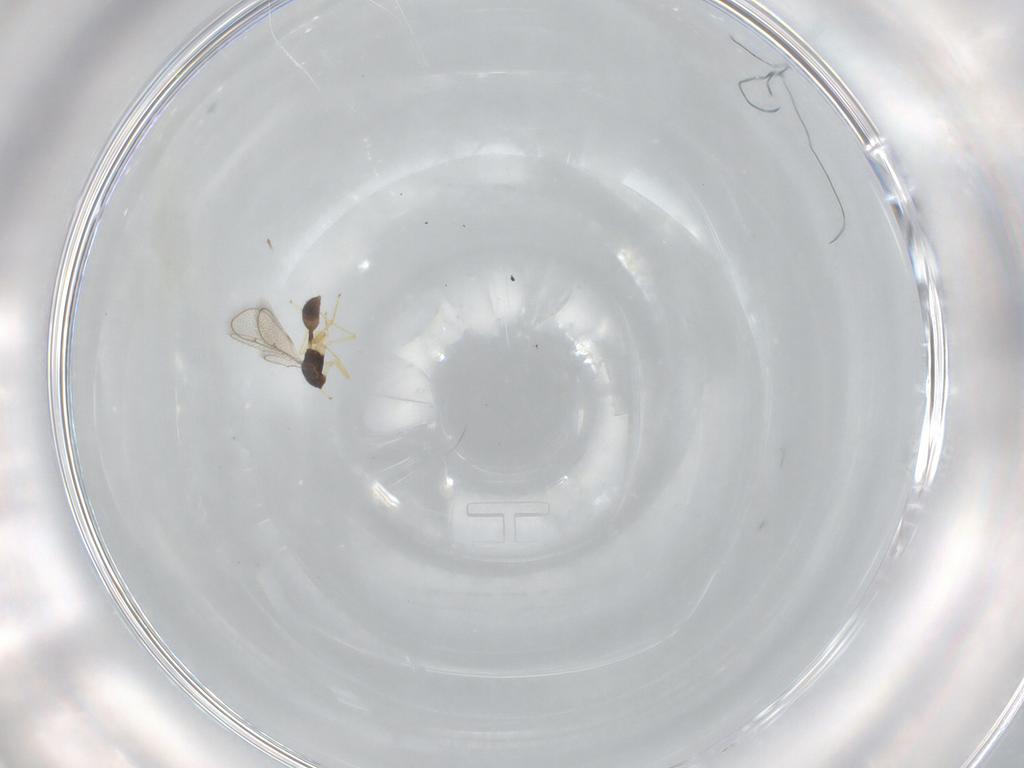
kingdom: Animalia
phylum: Arthropoda
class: Insecta
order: Hymenoptera
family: Diparidae
